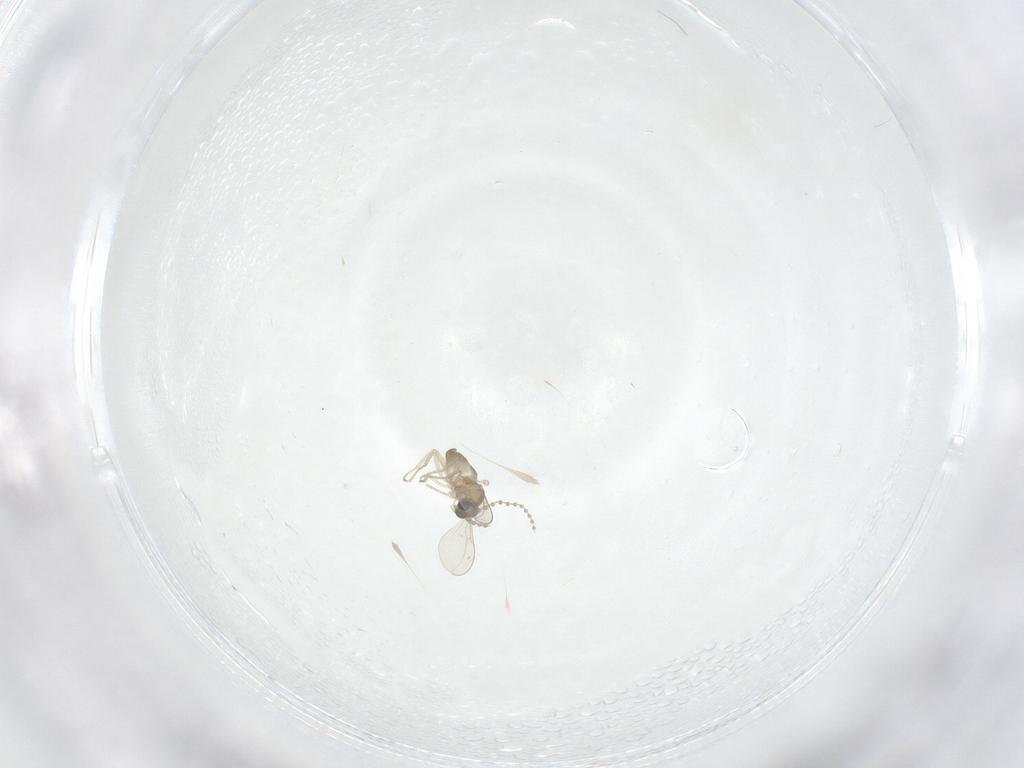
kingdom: Animalia
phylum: Arthropoda
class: Insecta
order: Diptera
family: Cecidomyiidae
